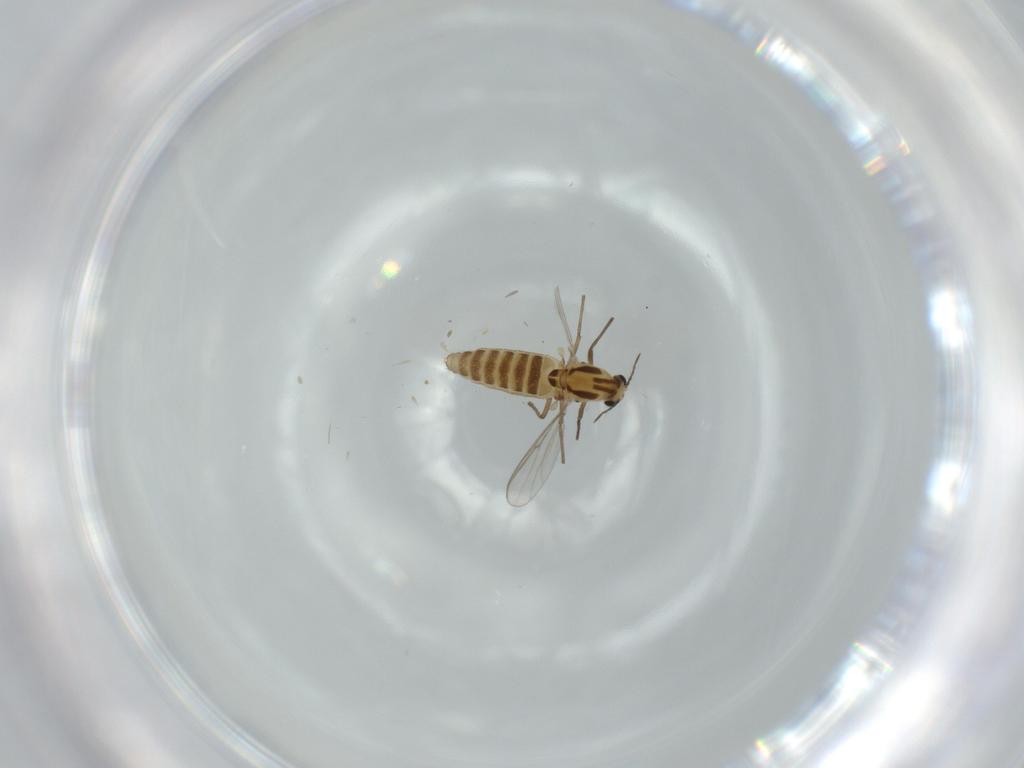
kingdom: Animalia
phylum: Arthropoda
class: Insecta
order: Diptera
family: Chironomidae
